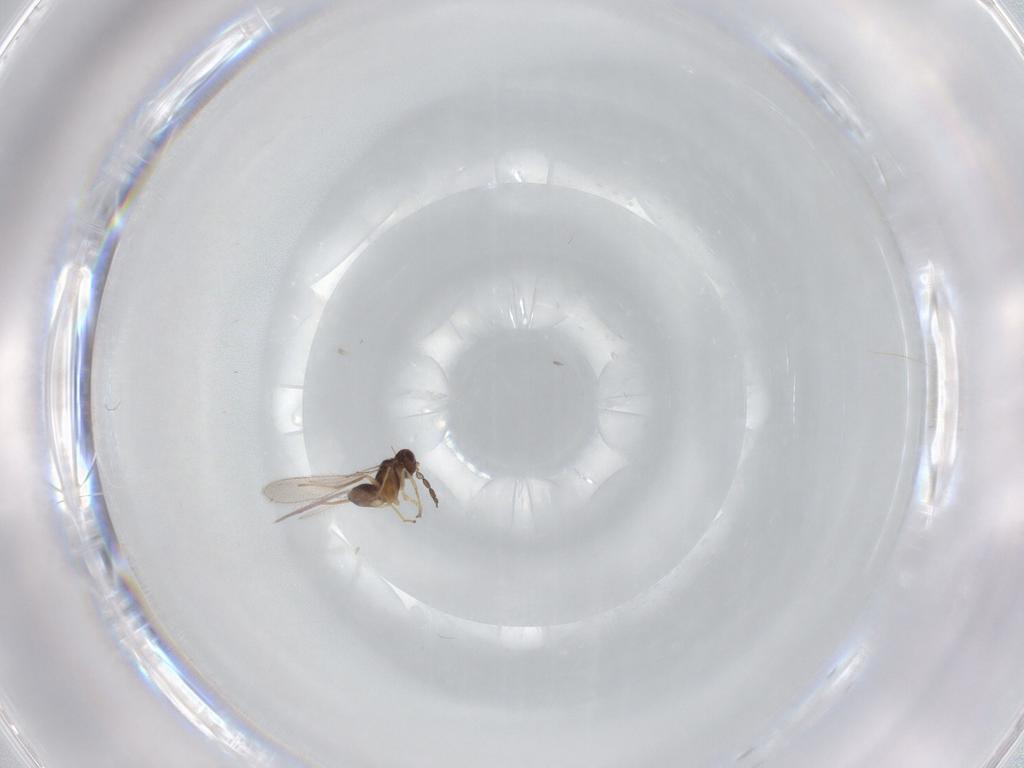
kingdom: Animalia
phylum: Arthropoda
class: Insecta
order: Hymenoptera
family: Mymaridae
